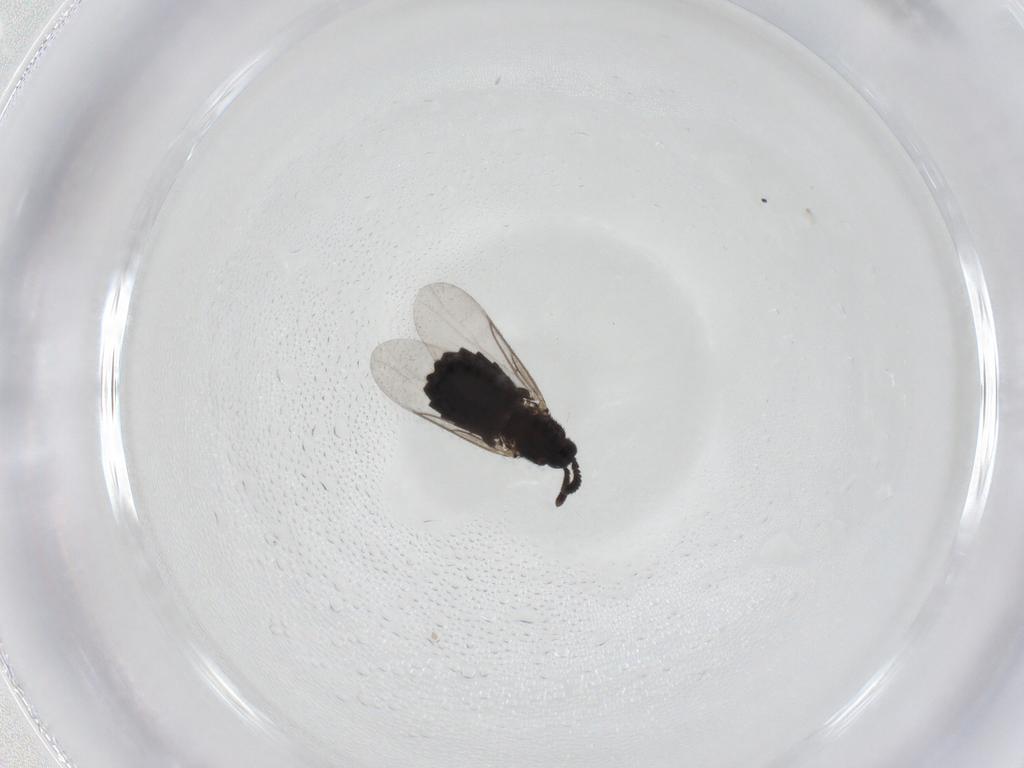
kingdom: Animalia
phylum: Arthropoda
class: Insecta
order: Diptera
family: Scatopsidae
